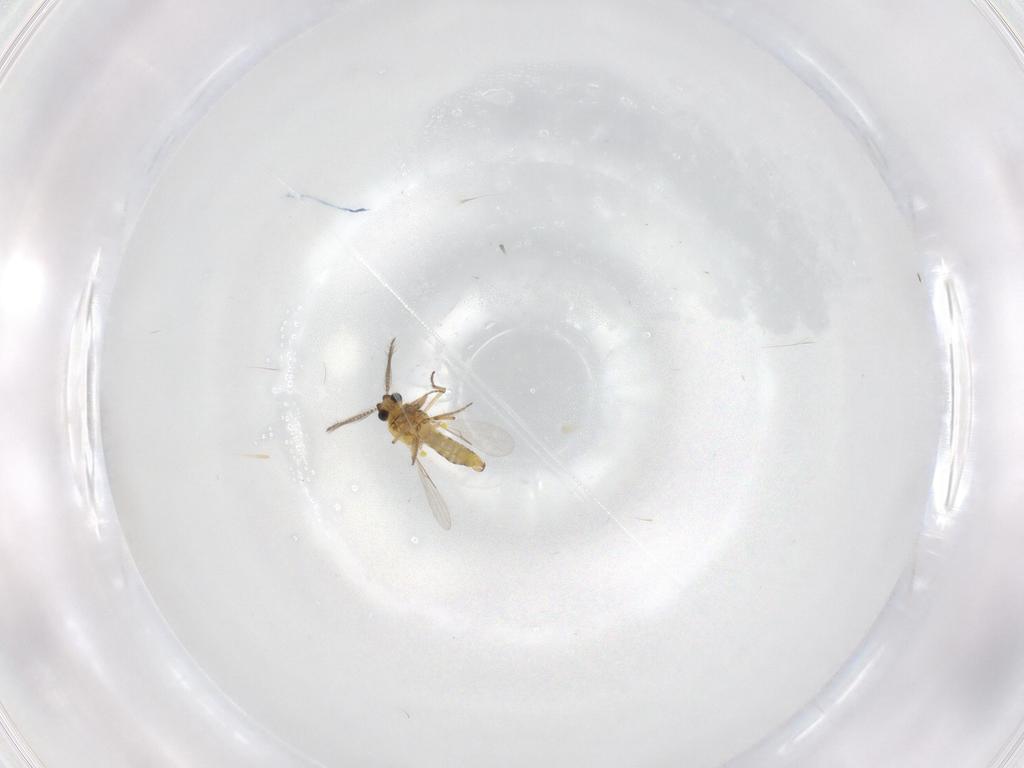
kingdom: Animalia
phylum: Arthropoda
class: Insecta
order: Diptera
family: Ceratopogonidae
